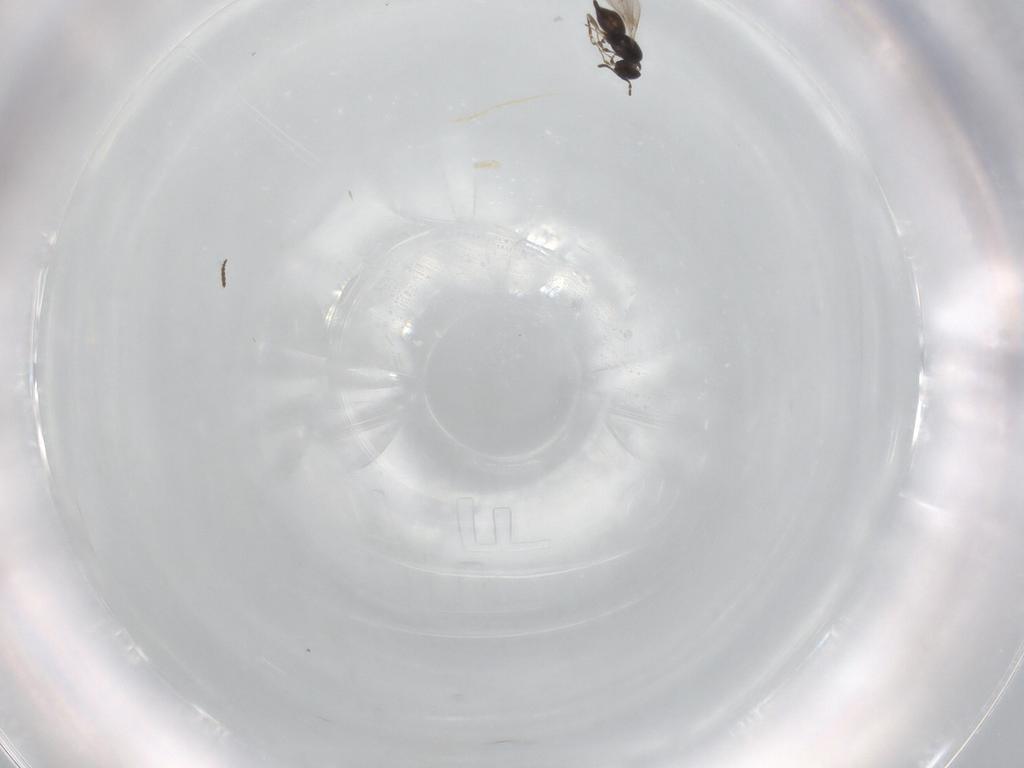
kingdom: Animalia
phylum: Arthropoda
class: Insecta
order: Hymenoptera
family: Scelionidae
